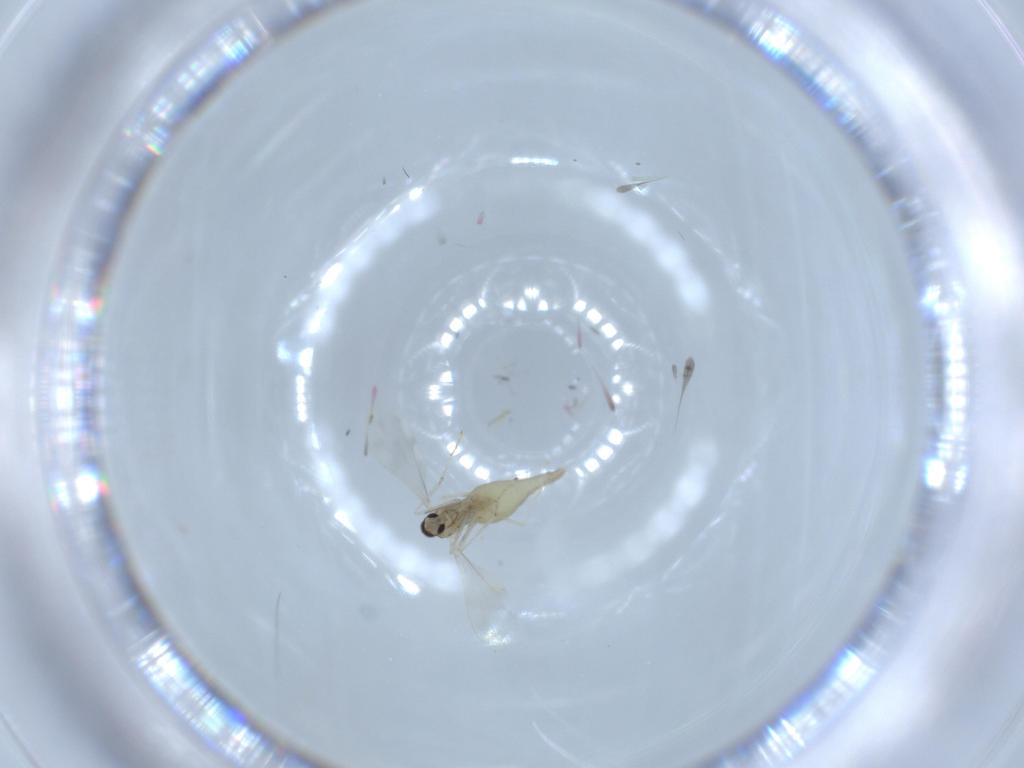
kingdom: Animalia
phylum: Arthropoda
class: Insecta
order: Diptera
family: Cecidomyiidae
